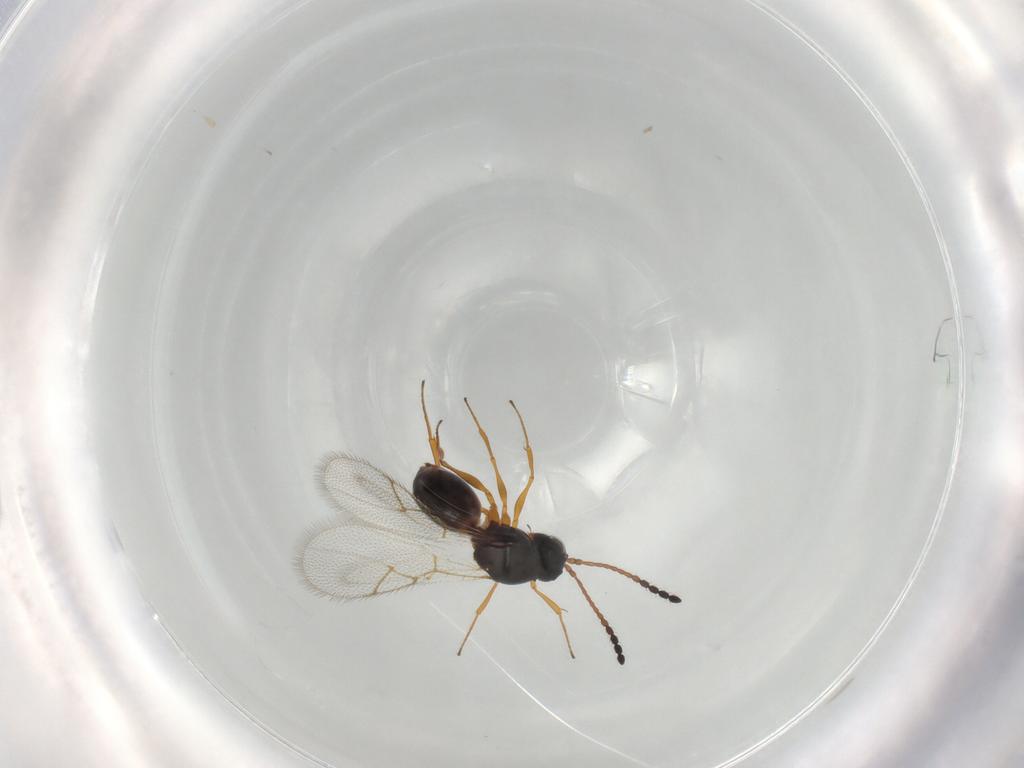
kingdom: Animalia
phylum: Arthropoda
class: Insecta
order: Hymenoptera
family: Figitidae
